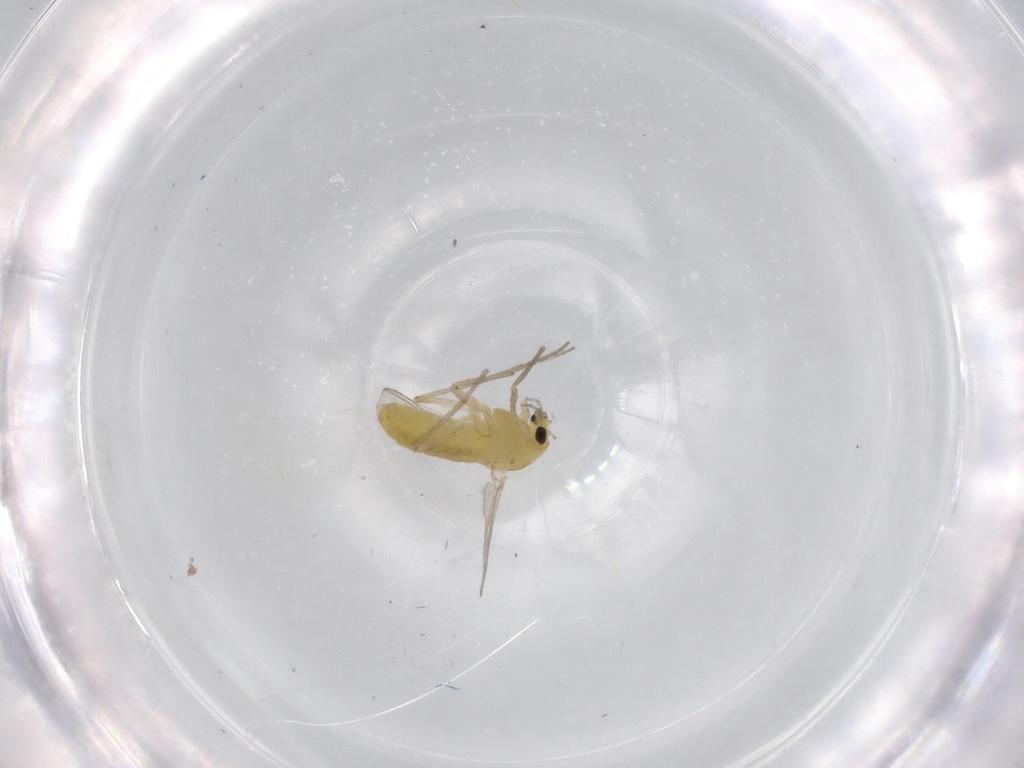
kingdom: Animalia
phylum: Arthropoda
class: Insecta
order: Diptera
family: Chironomidae
